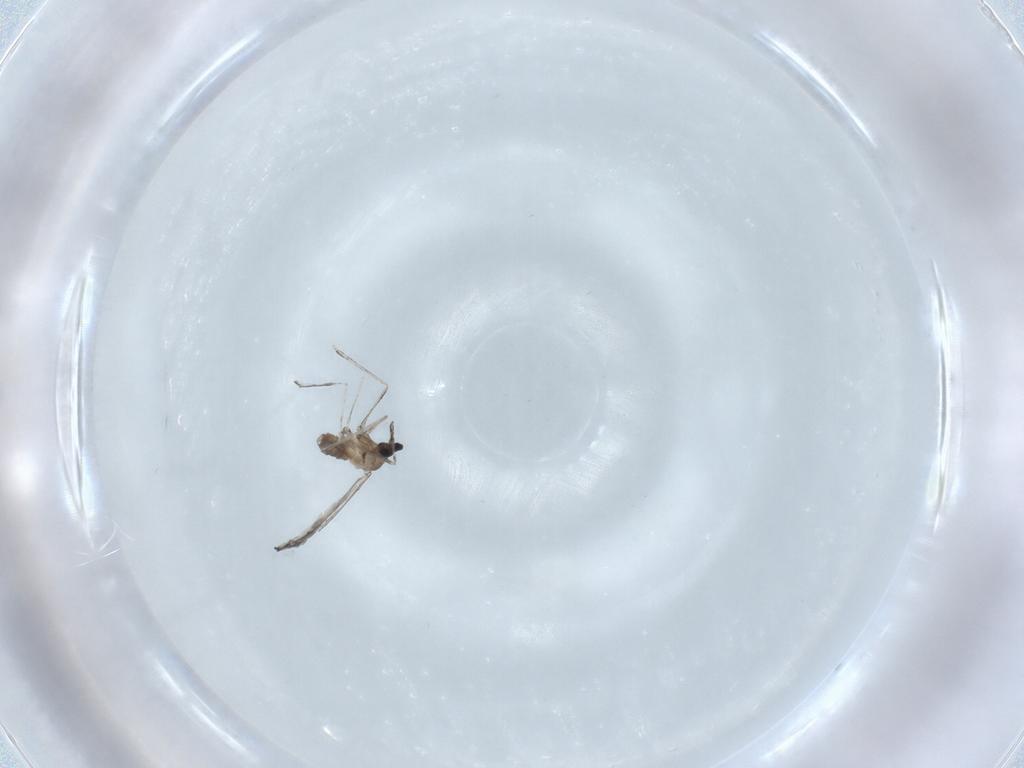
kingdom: Animalia
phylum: Arthropoda
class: Insecta
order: Diptera
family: Cecidomyiidae
